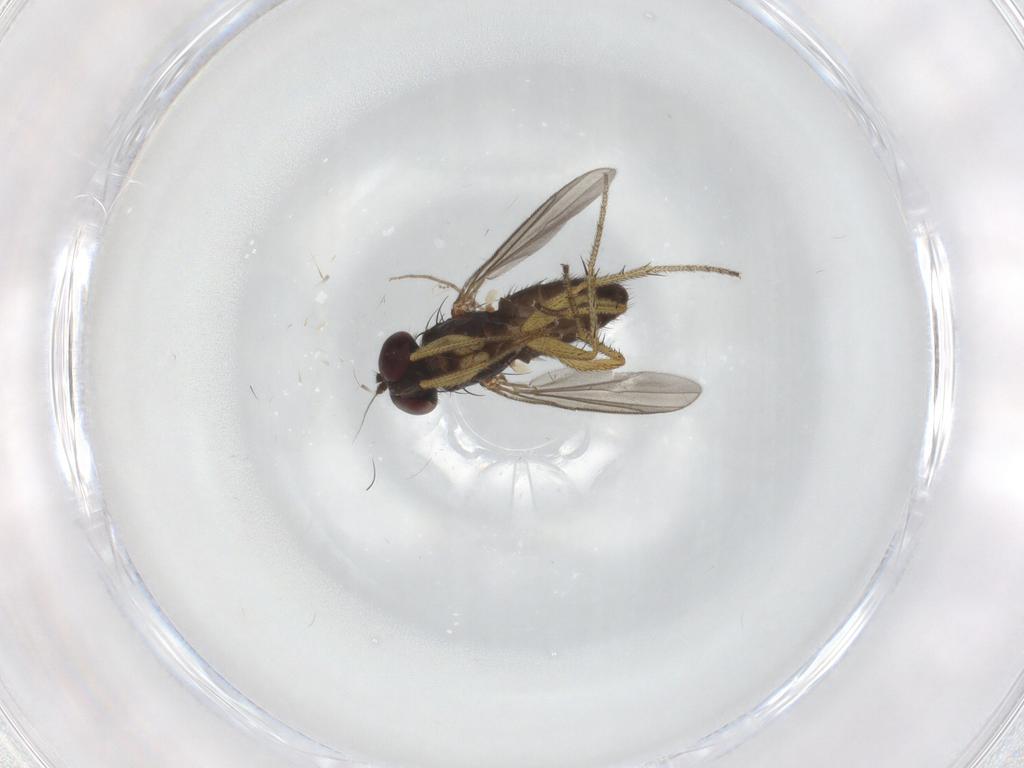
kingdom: Animalia
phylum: Arthropoda
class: Insecta
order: Diptera
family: Dolichopodidae
